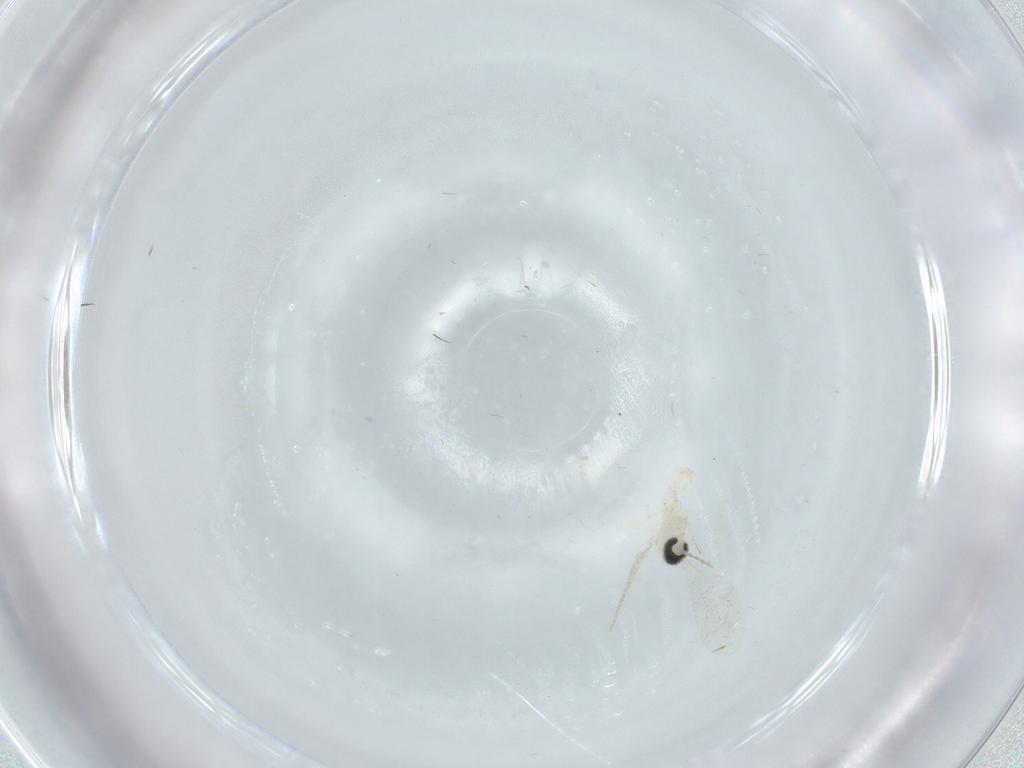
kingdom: Animalia
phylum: Arthropoda
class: Insecta
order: Diptera
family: Cecidomyiidae
